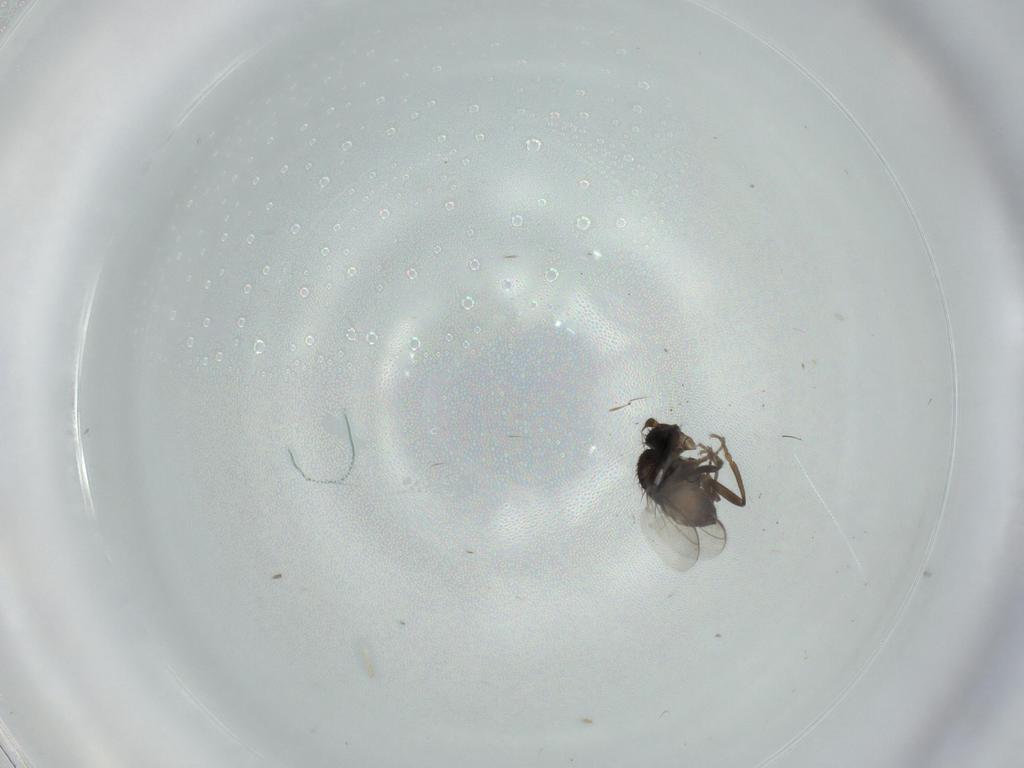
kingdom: Animalia
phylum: Arthropoda
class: Insecta
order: Diptera
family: Sphaeroceridae
